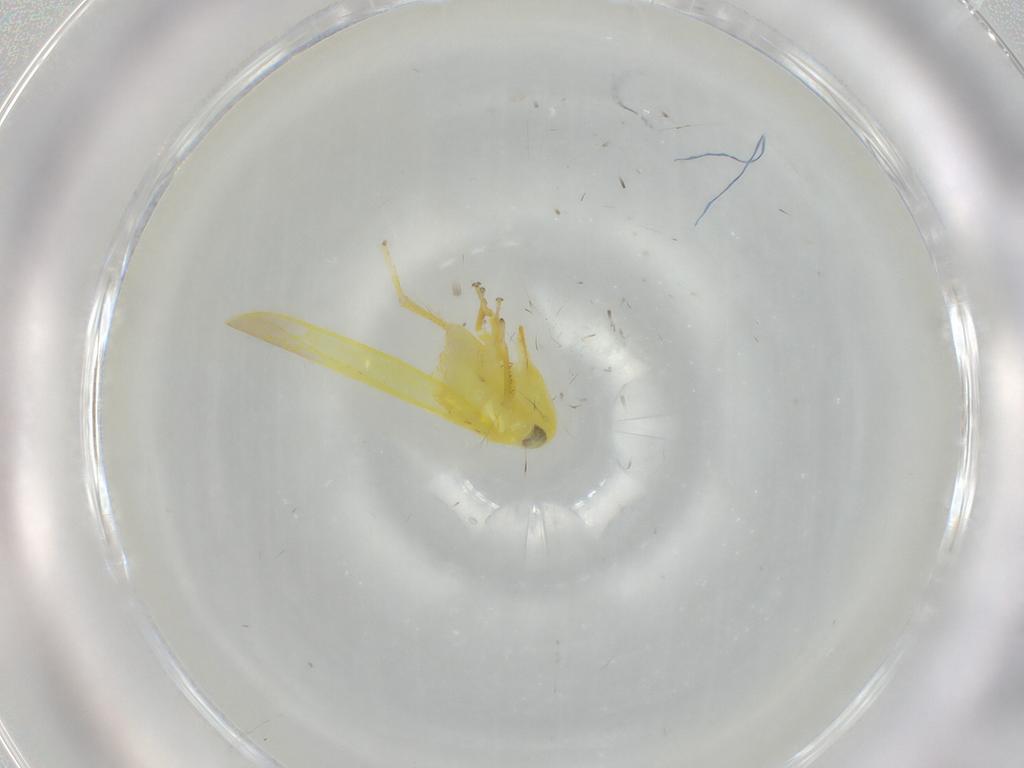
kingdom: Animalia
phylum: Arthropoda
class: Insecta
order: Hemiptera
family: Cicadellidae
